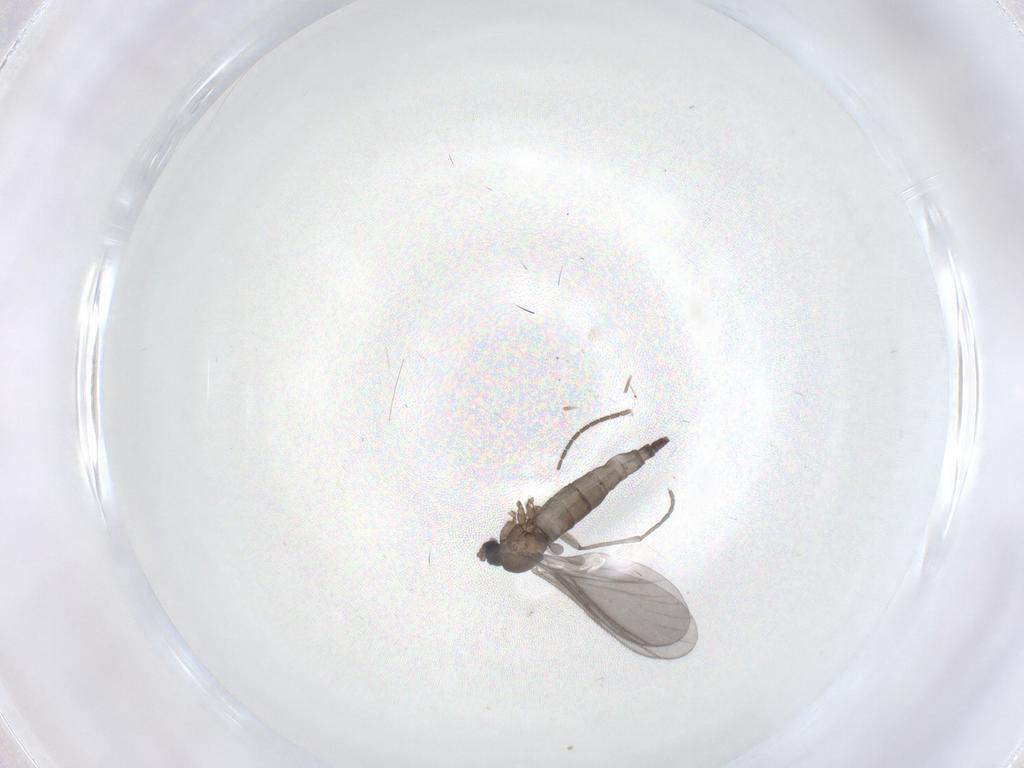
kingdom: Animalia
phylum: Arthropoda
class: Insecta
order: Diptera
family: Sciaridae
